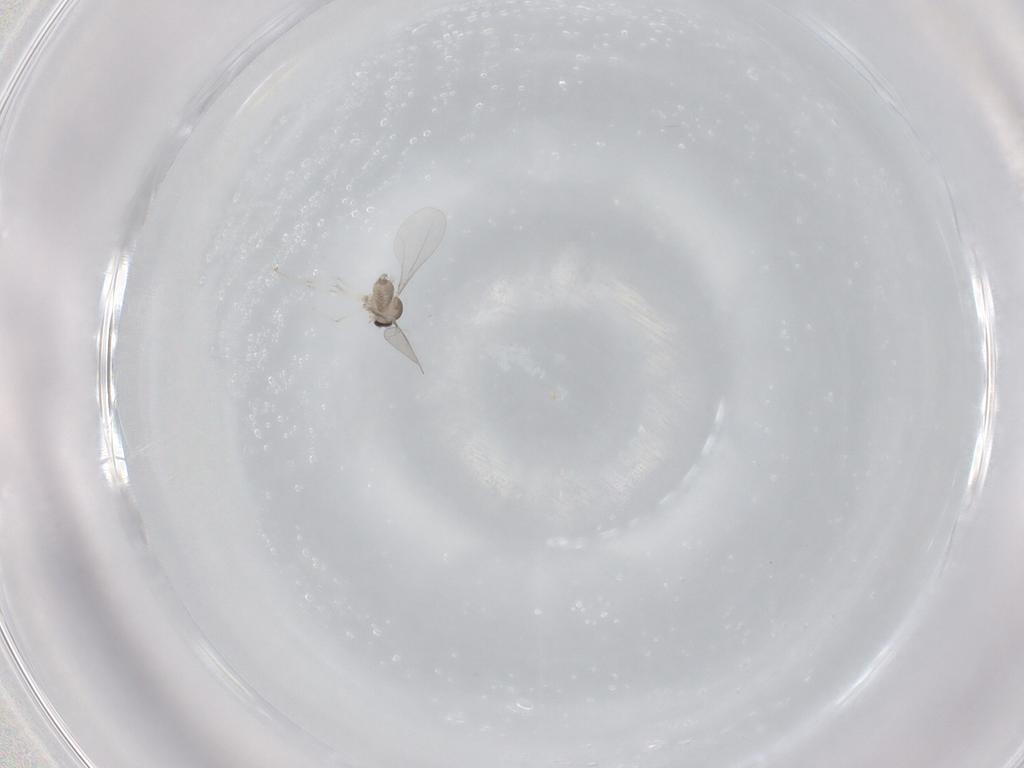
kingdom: Animalia
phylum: Arthropoda
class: Insecta
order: Diptera
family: Cecidomyiidae
